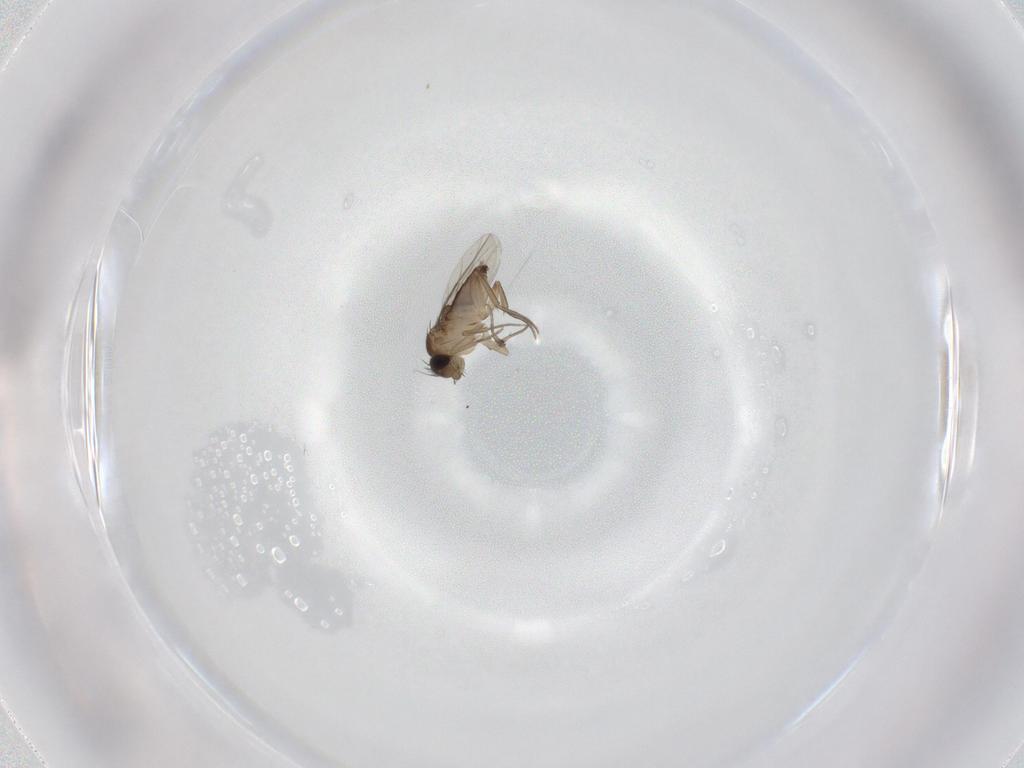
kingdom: Animalia
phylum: Arthropoda
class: Insecta
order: Diptera
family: Phoridae
